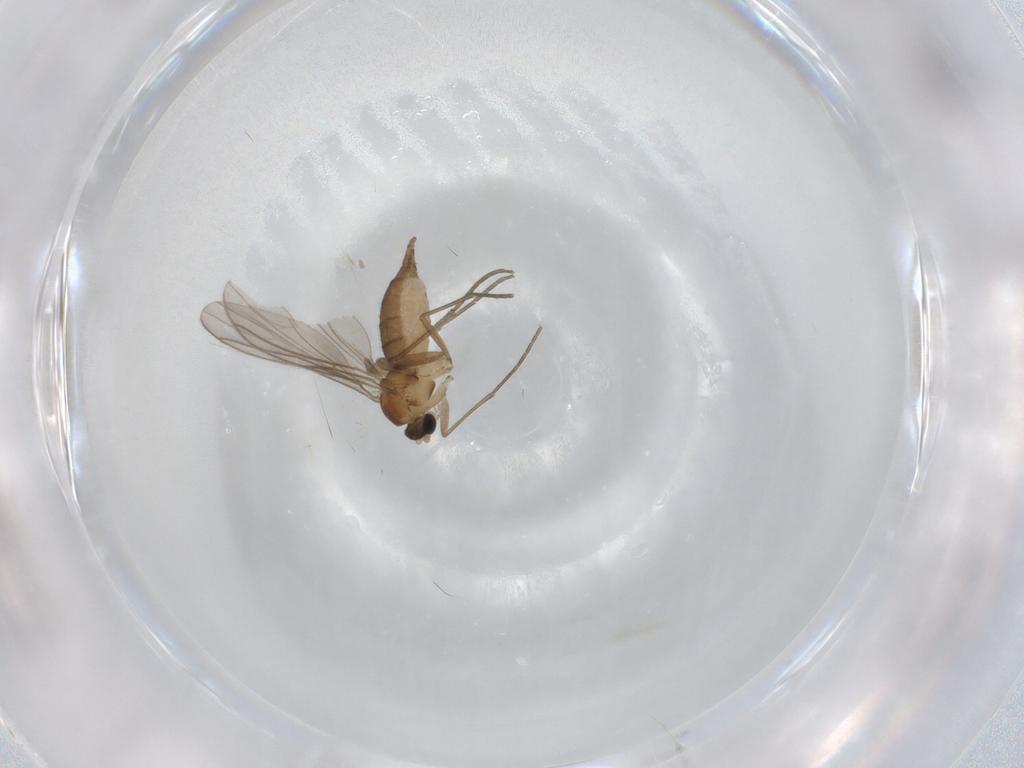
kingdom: Animalia
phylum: Arthropoda
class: Insecta
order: Diptera
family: Sciaridae
